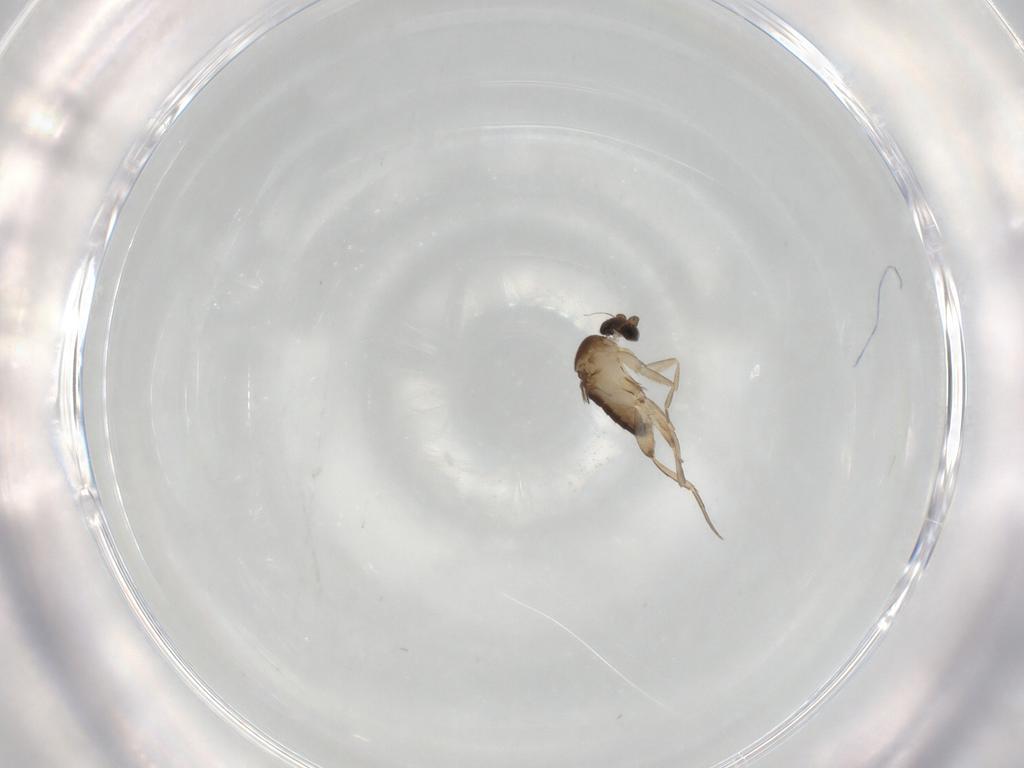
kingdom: Animalia
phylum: Arthropoda
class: Insecta
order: Diptera
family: Phoridae
